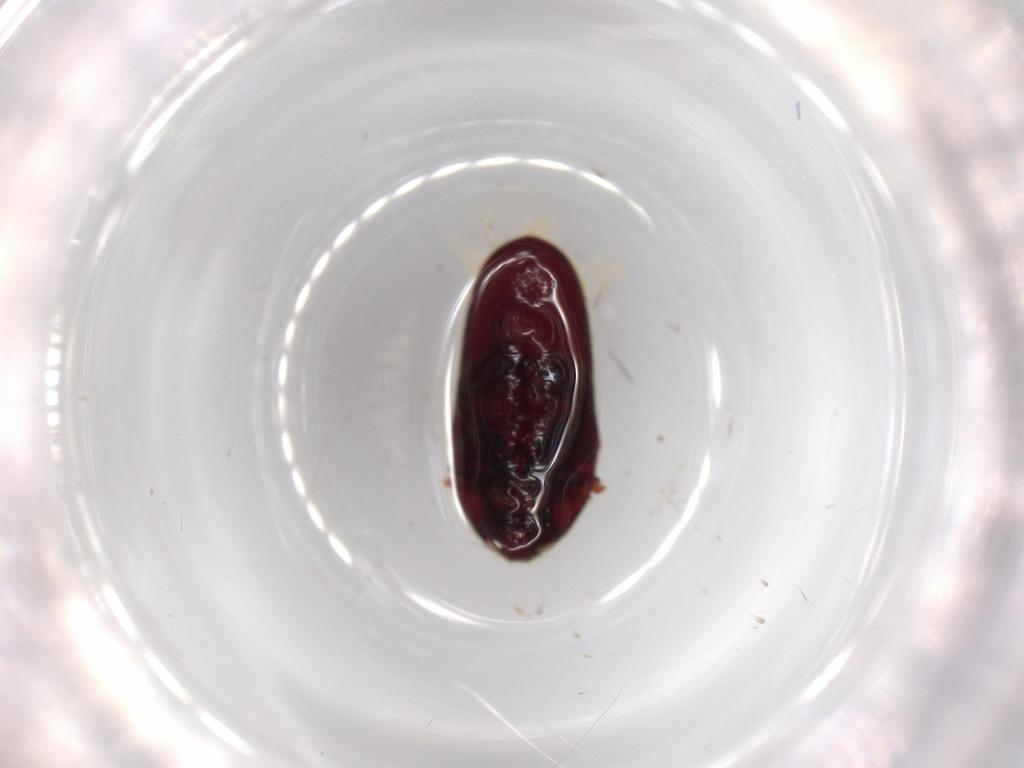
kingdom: Animalia
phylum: Arthropoda
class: Insecta
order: Coleoptera
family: Throscidae
